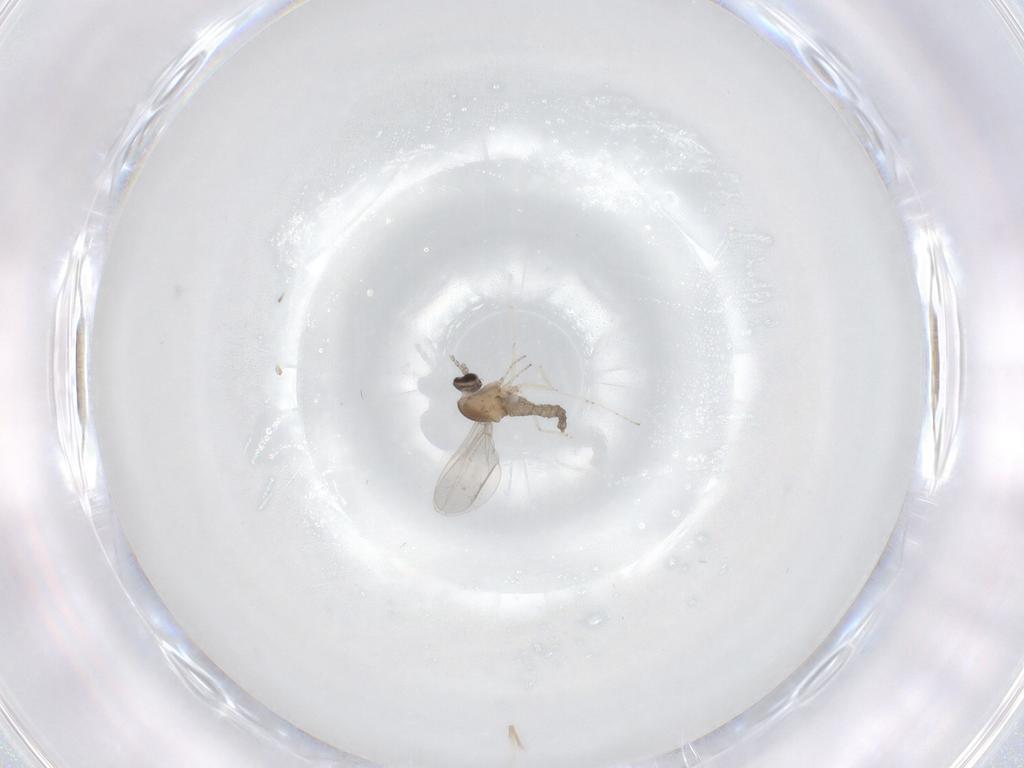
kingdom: Animalia
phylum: Arthropoda
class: Insecta
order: Diptera
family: Cecidomyiidae
